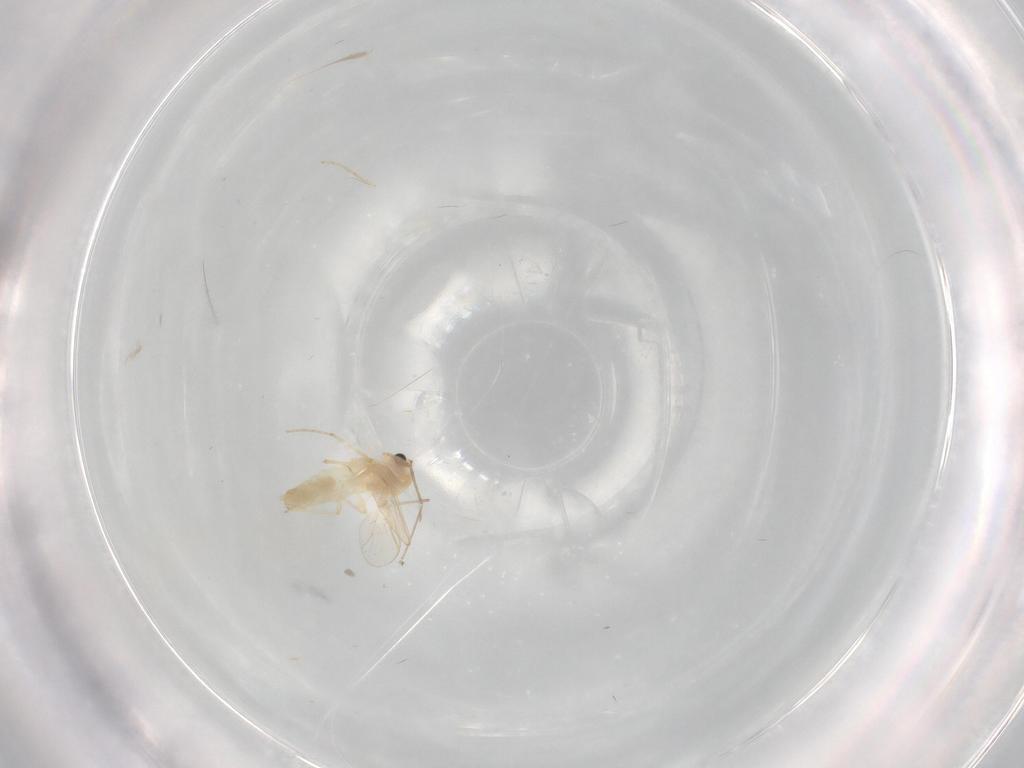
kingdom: Animalia
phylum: Arthropoda
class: Insecta
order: Diptera
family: Chironomidae
